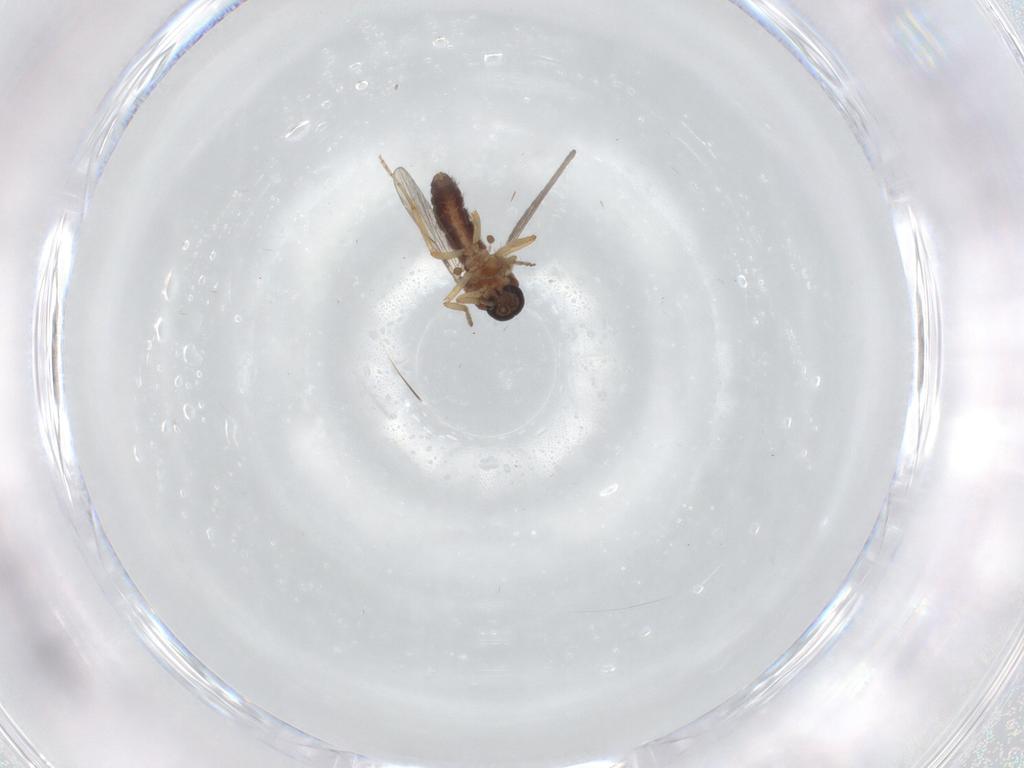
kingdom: Animalia
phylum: Arthropoda
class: Insecta
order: Diptera
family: Ceratopogonidae
